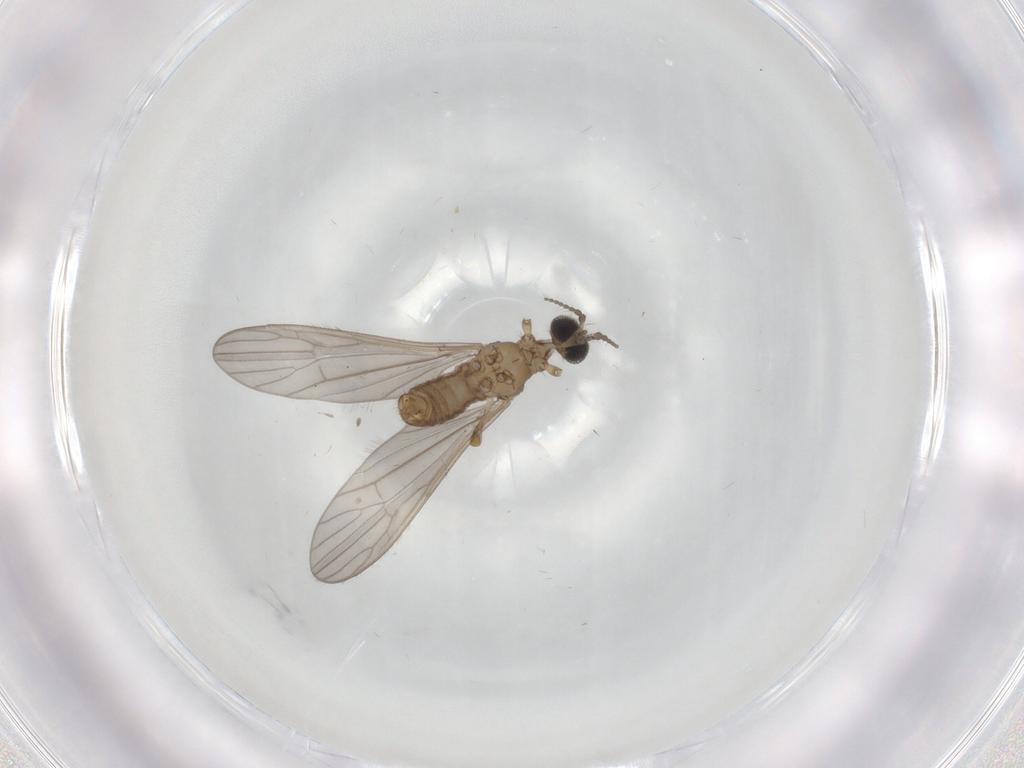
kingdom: Animalia
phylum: Arthropoda
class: Insecta
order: Diptera
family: Limoniidae
